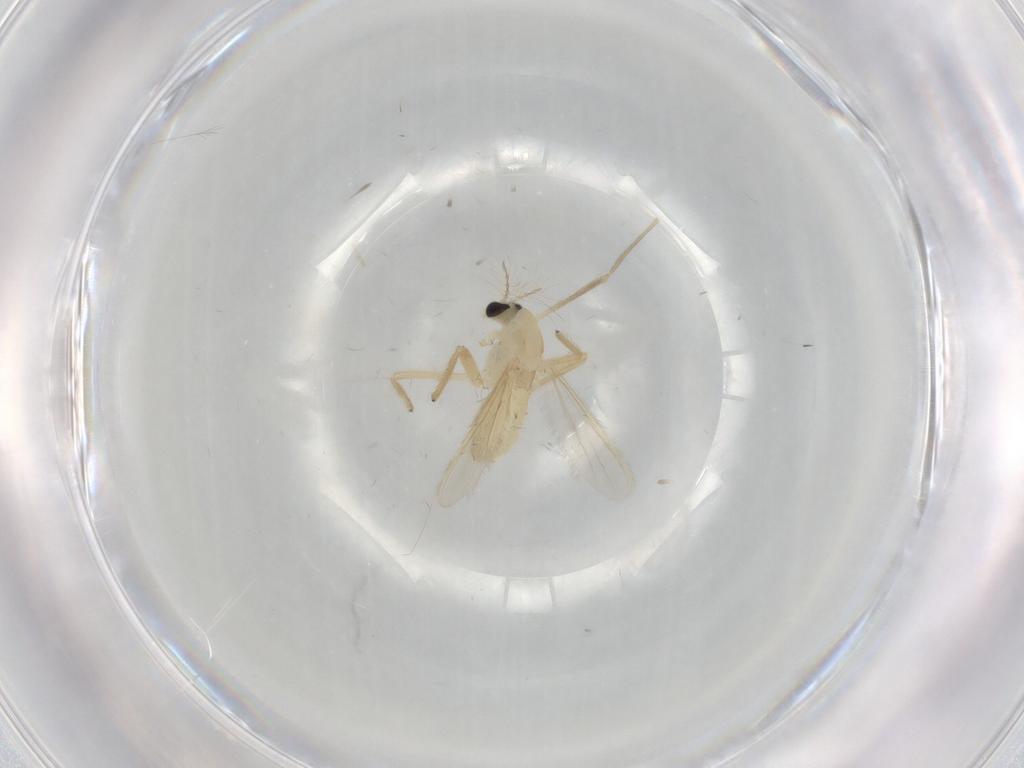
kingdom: Animalia
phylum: Arthropoda
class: Insecta
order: Diptera
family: Chironomidae
